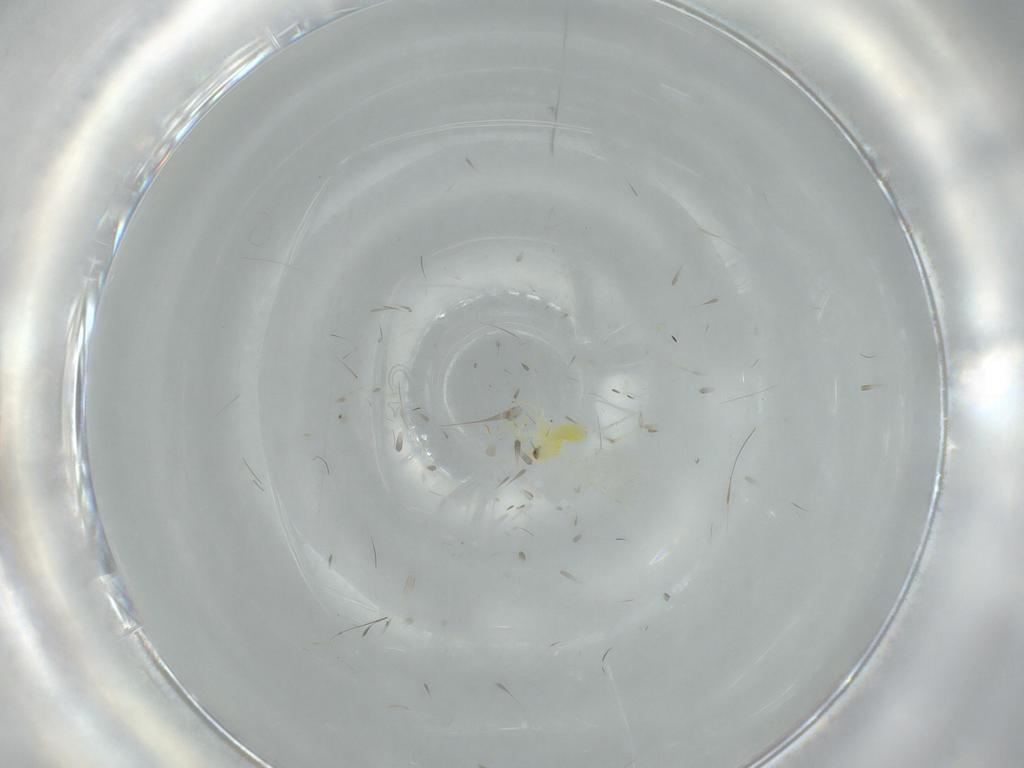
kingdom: Animalia
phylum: Arthropoda
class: Insecta
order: Hemiptera
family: Aleyrodidae
